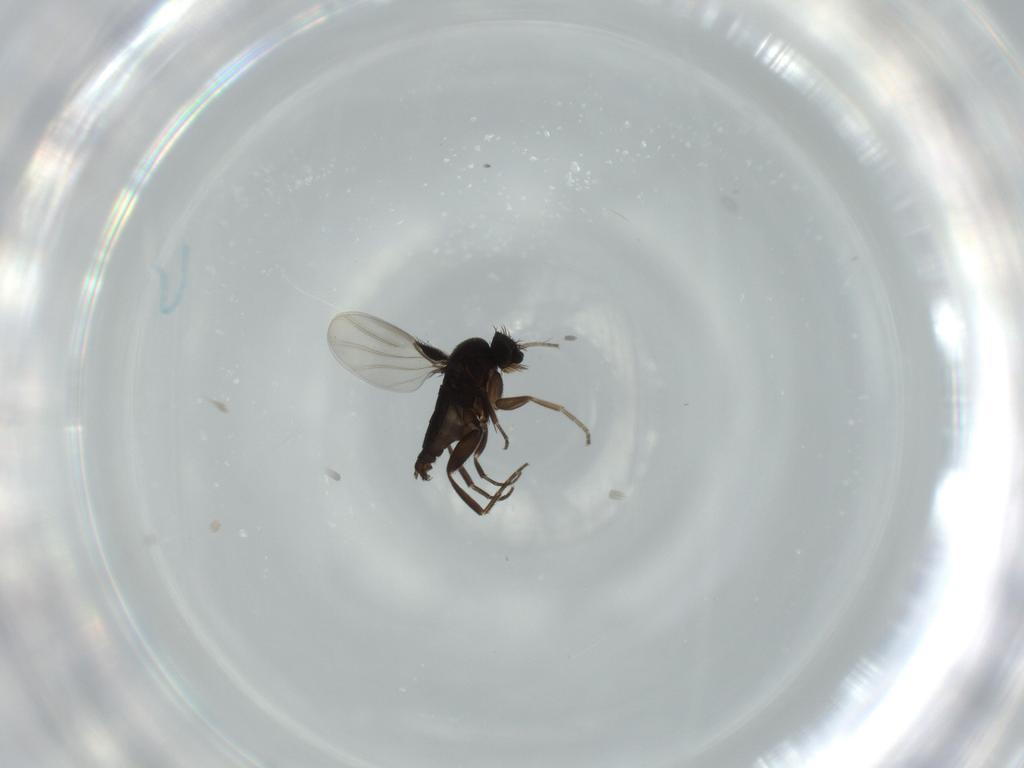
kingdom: Animalia
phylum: Arthropoda
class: Insecta
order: Diptera
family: Phoridae
